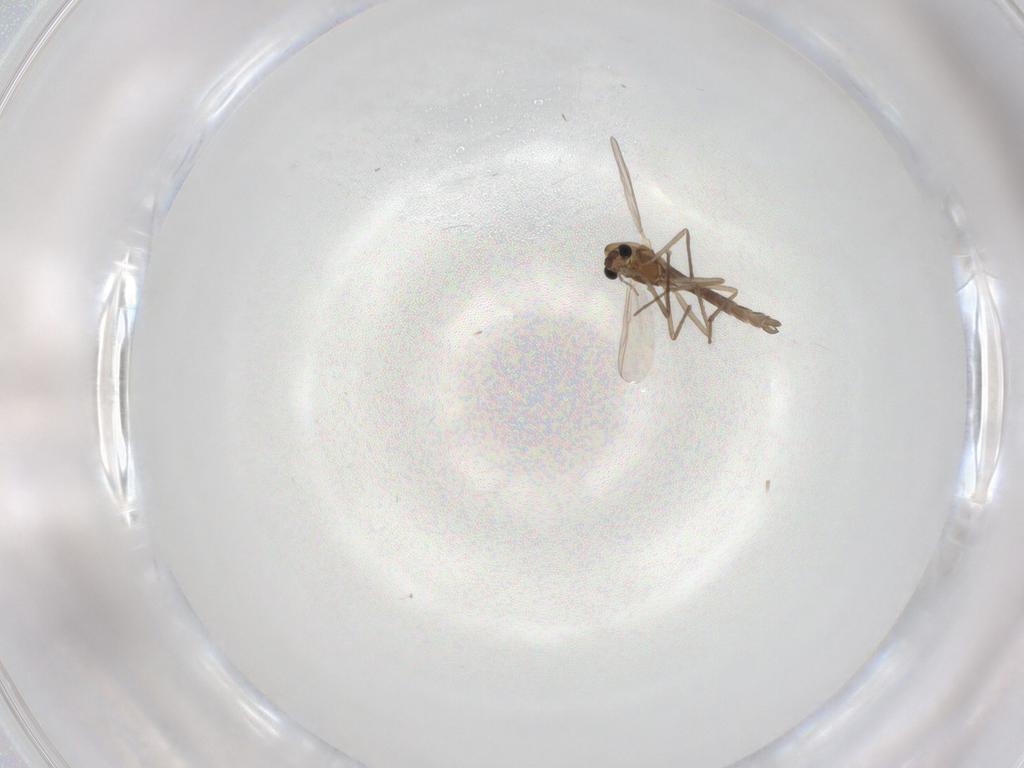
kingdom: Animalia
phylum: Arthropoda
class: Insecta
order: Diptera
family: Chironomidae
